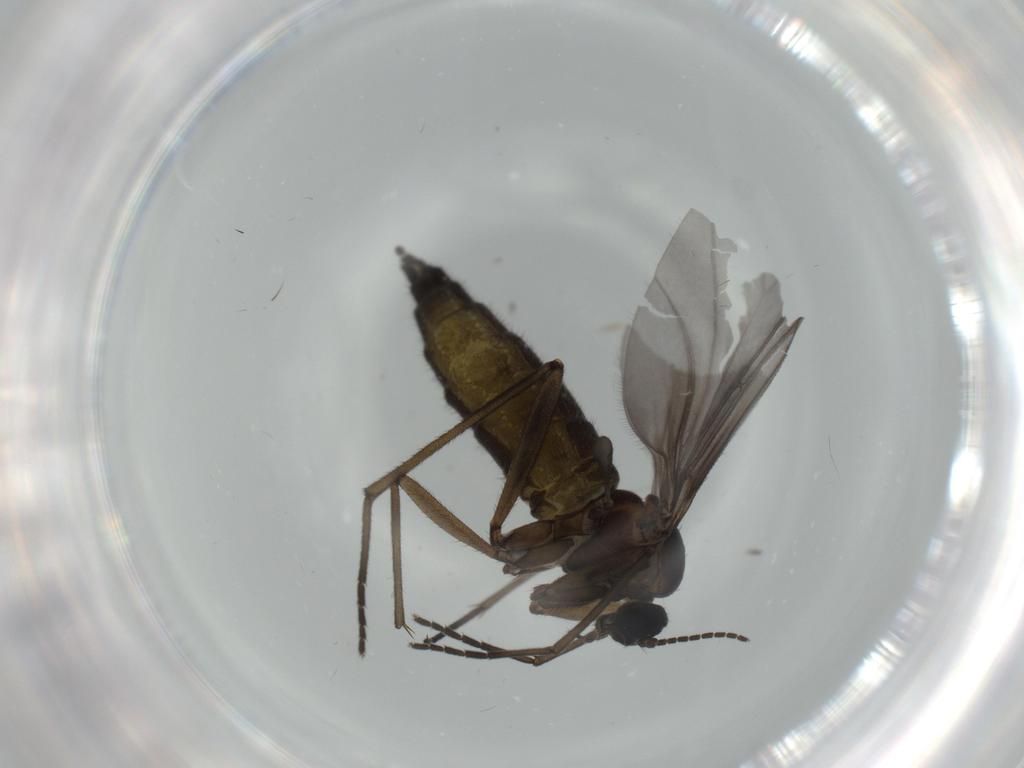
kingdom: Animalia
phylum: Arthropoda
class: Insecta
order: Diptera
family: Sciaridae
